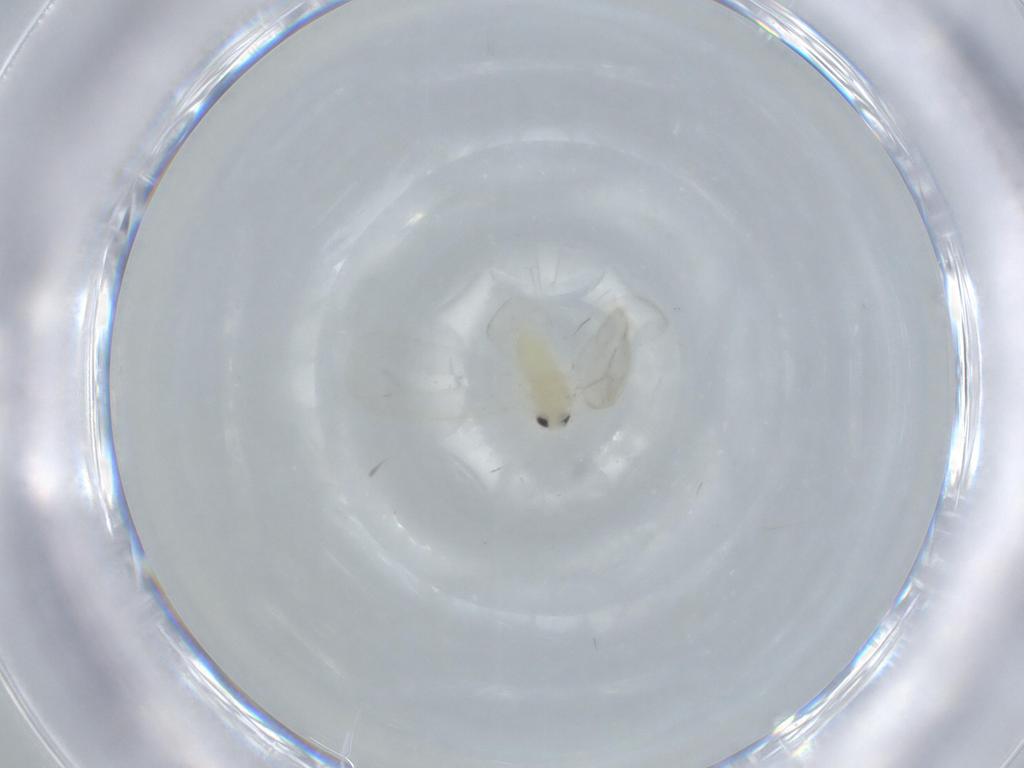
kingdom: Animalia
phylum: Arthropoda
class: Insecta
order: Hemiptera
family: Aleyrodidae
